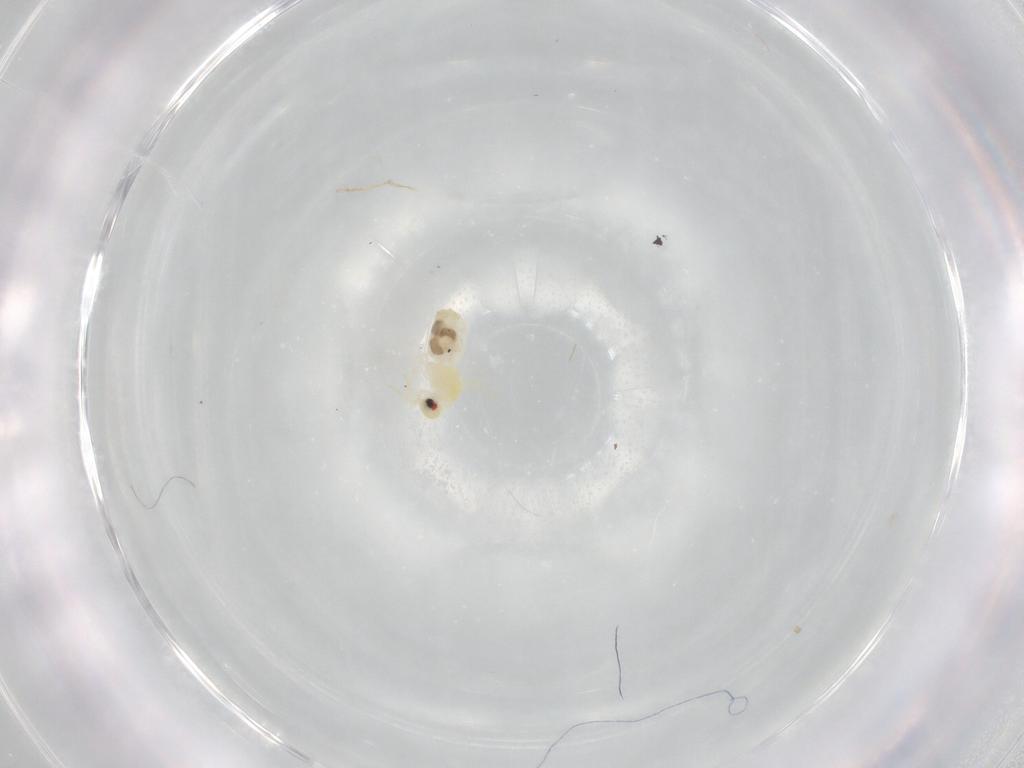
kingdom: Animalia
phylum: Arthropoda
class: Insecta
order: Hemiptera
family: Aleyrodidae
